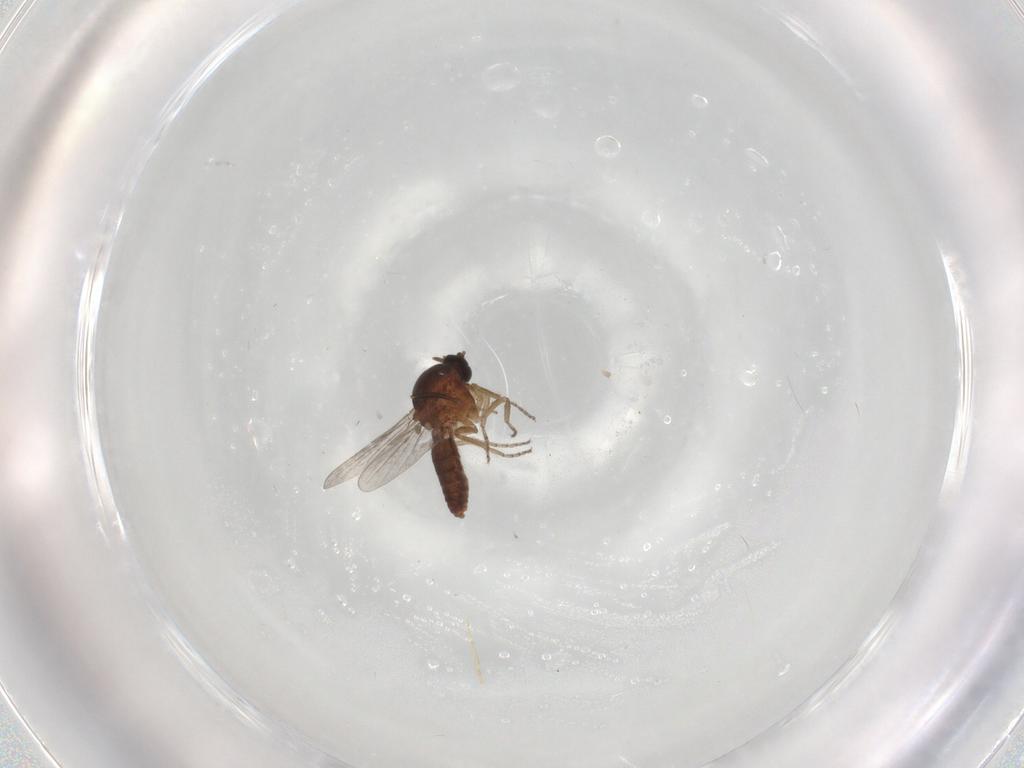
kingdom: Animalia
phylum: Arthropoda
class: Insecta
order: Diptera
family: Ceratopogonidae
